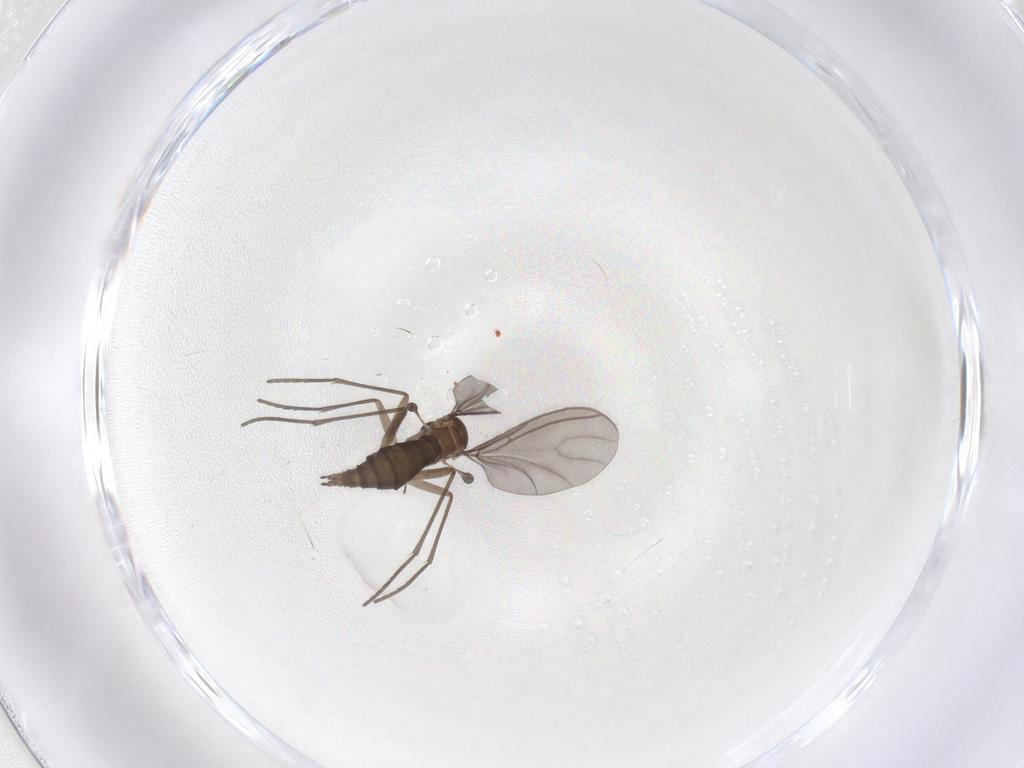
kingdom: Animalia
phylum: Arthropoda
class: Insecta
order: Diptera
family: Sciaridae
